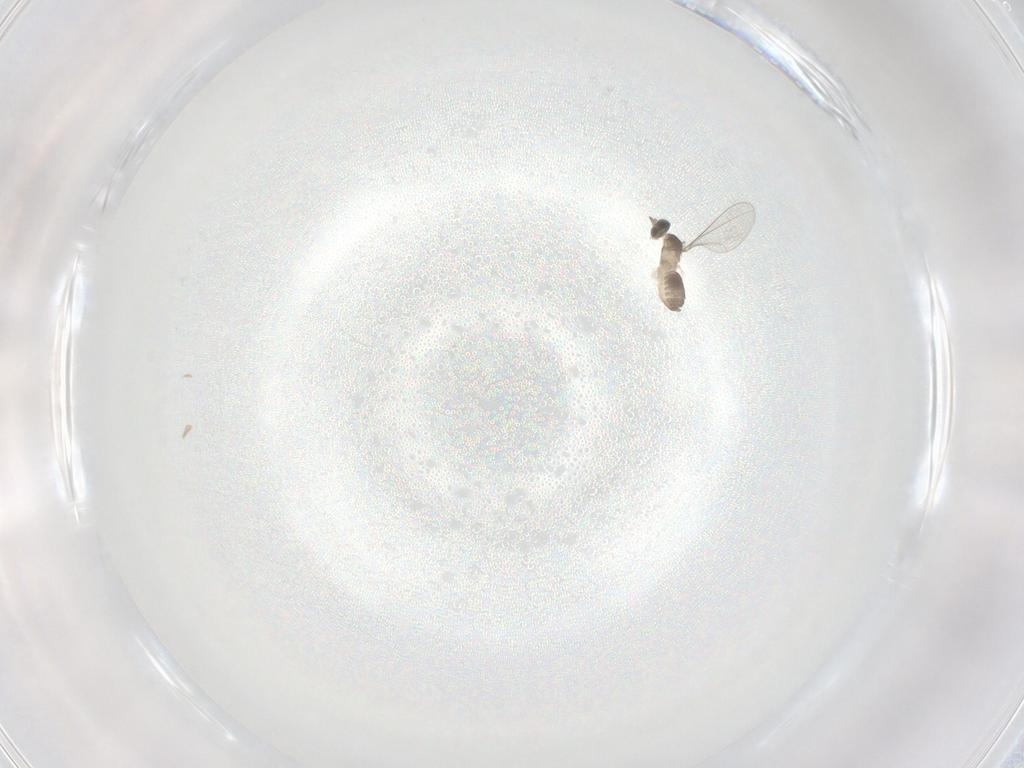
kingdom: Animalia
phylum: Arthropoda
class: Insecta
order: Diptera
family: Cecidomyiidae
